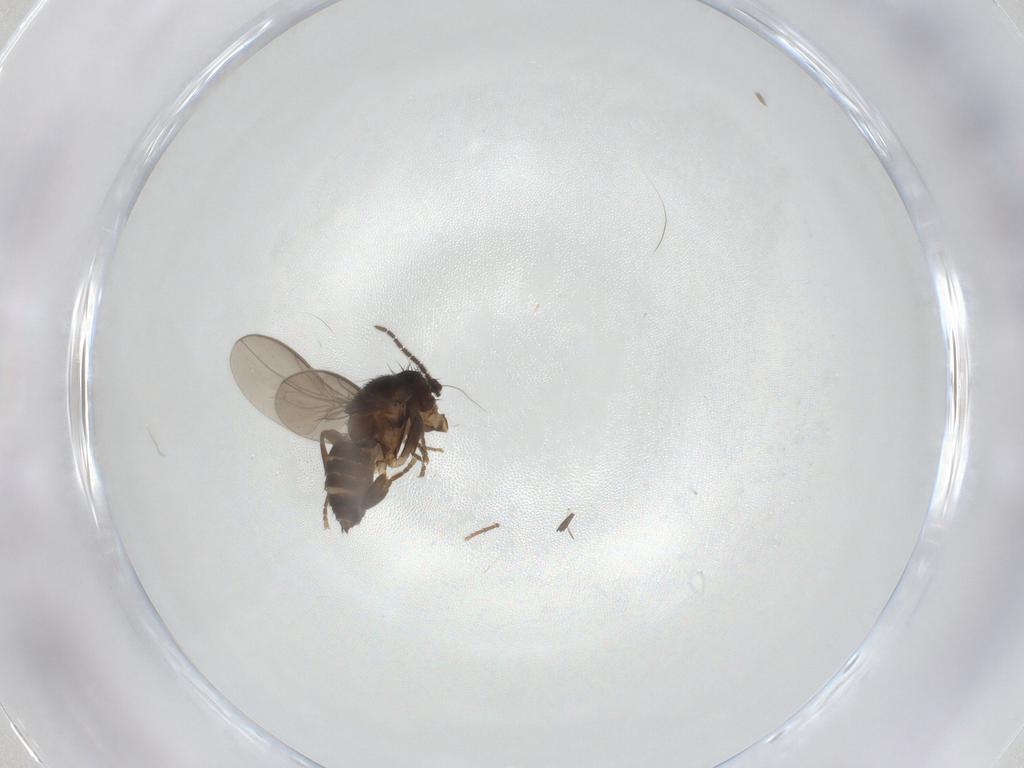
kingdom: Animalia
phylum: Arthropoda
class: Insecta
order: Diptera
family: Sphaeroceridae
